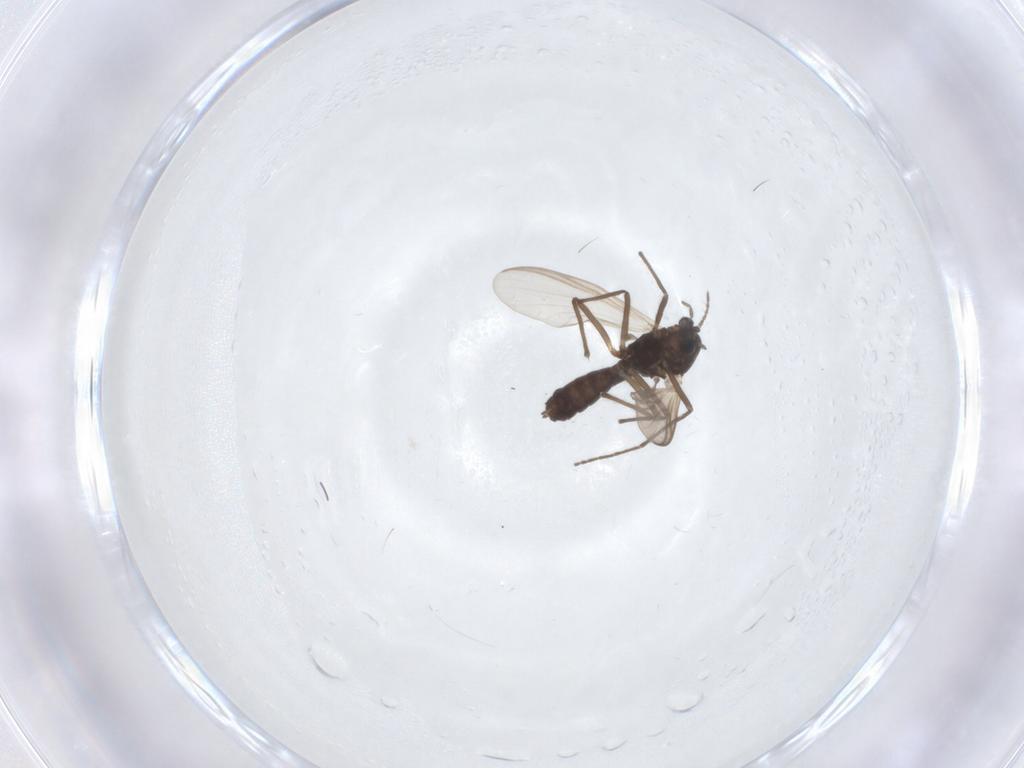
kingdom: Animalia
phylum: Arthropoda
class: Insecta
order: Diptera
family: Chironomidae
